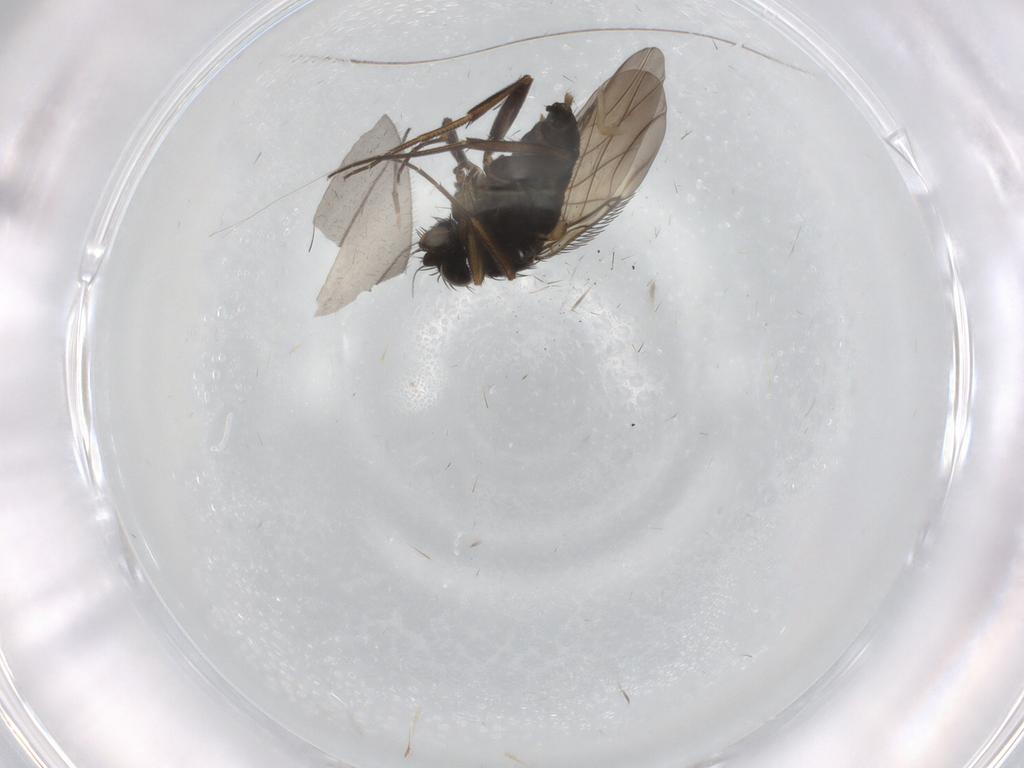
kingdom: Animalia
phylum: Arthropoda
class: Insecta
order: Diptera
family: Phoridae
